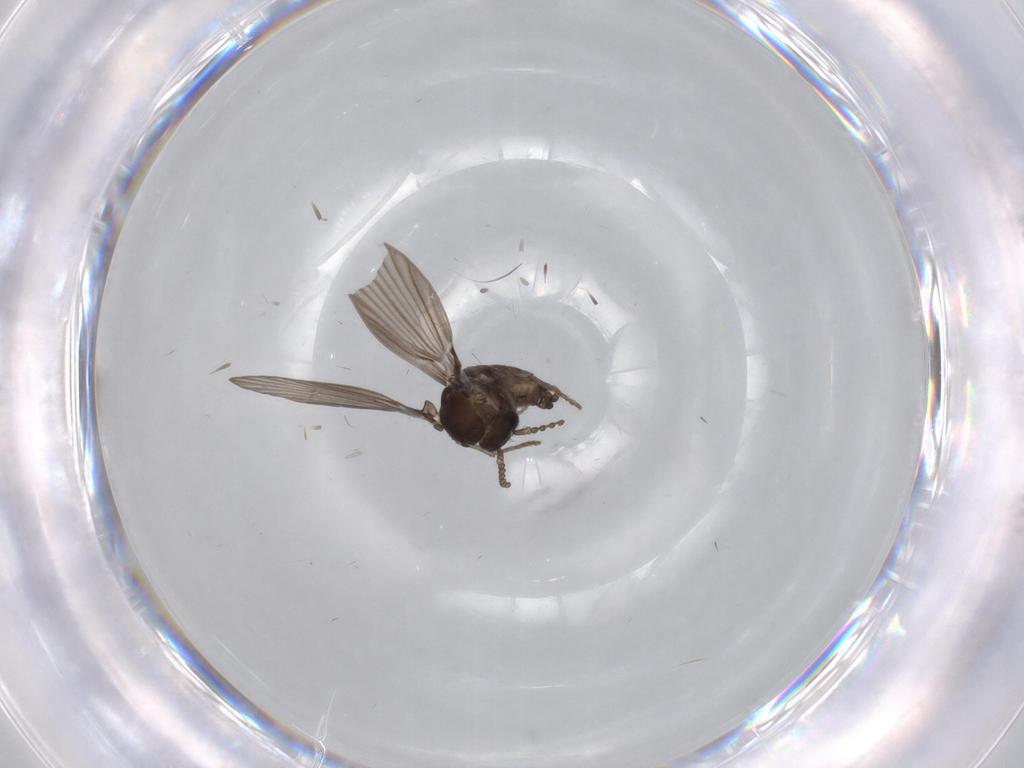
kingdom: Animalia
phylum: Arthropoda
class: Insecta
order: Diptera
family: Psychodidae
